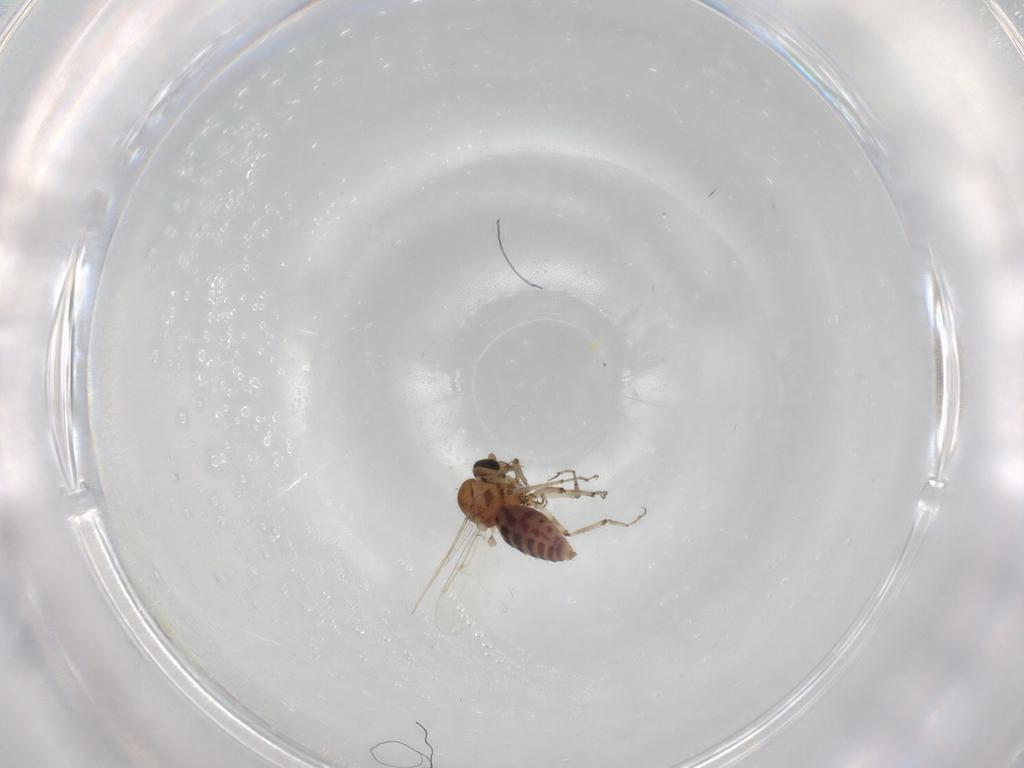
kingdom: Animalia
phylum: Arthropoda
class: Insecta
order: Diptera
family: Ceratopogonidae
